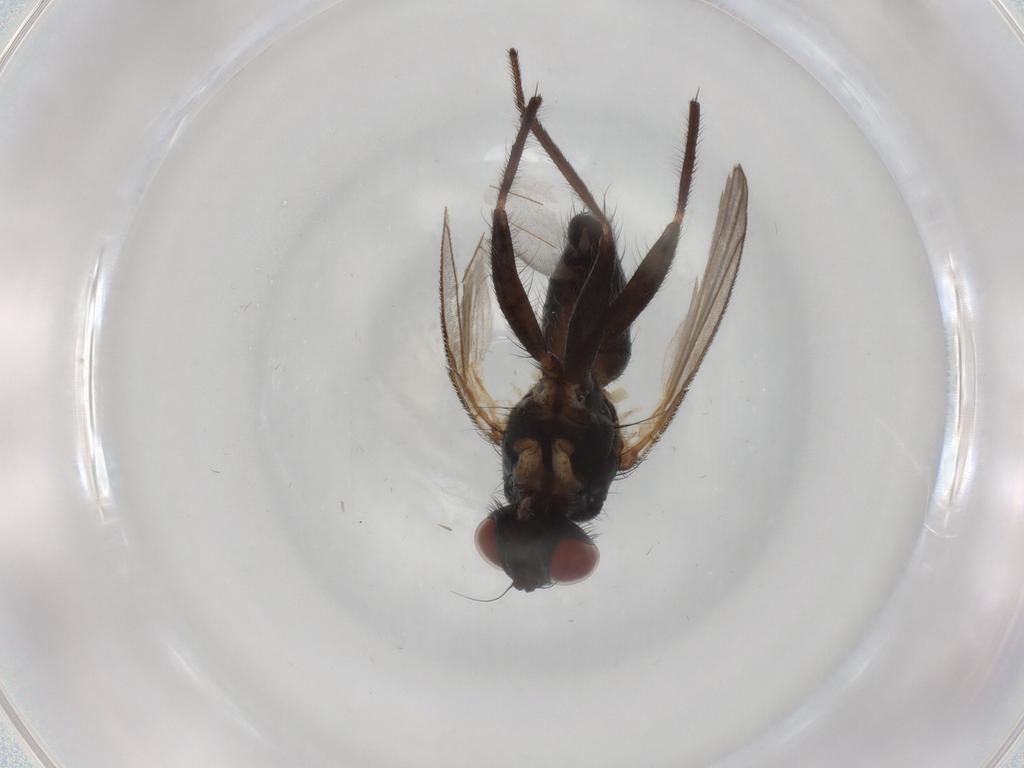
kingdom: Animalia
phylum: Arthropoda
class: Insecta
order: Diptera
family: Muscidae
